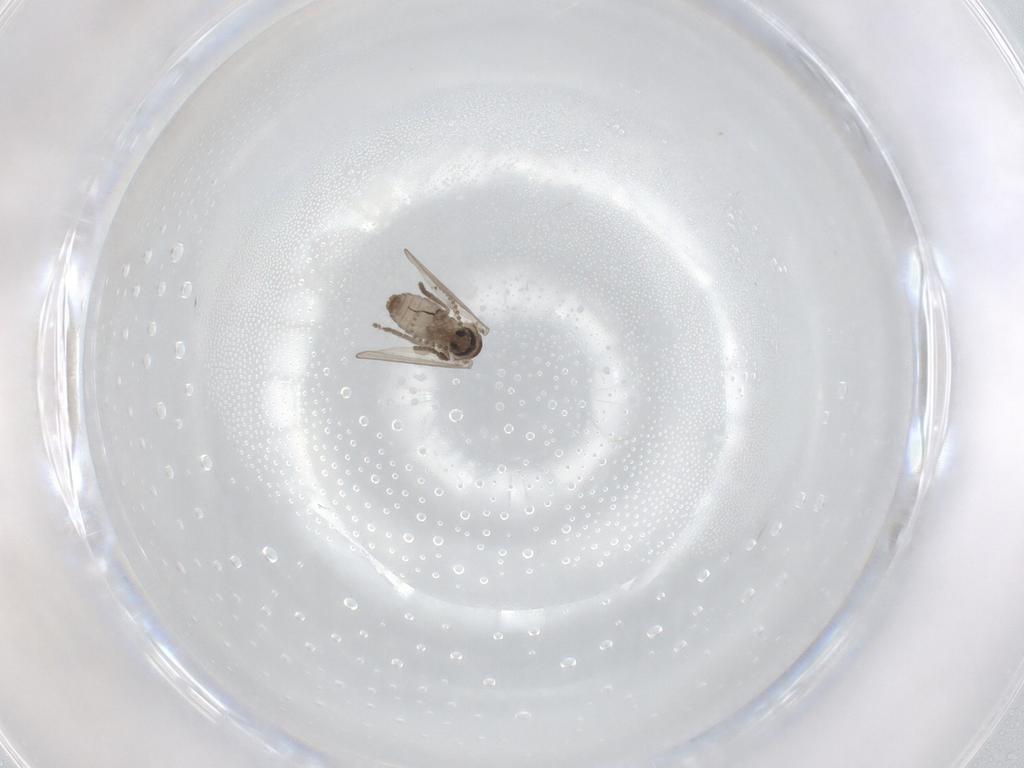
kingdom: Animalia
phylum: Arthropoda
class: Insecta
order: Diptera
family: Psychodidae
